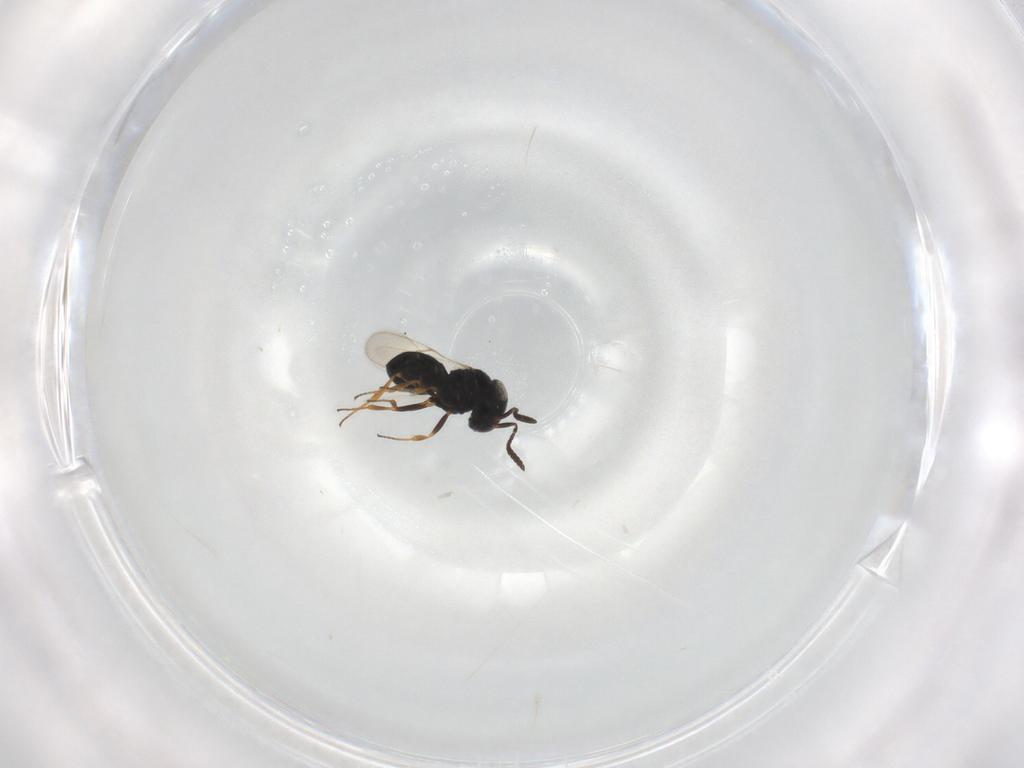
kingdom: Animalia
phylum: Arthropoda
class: Insecta
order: Hymenoptera
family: Scelionidae
